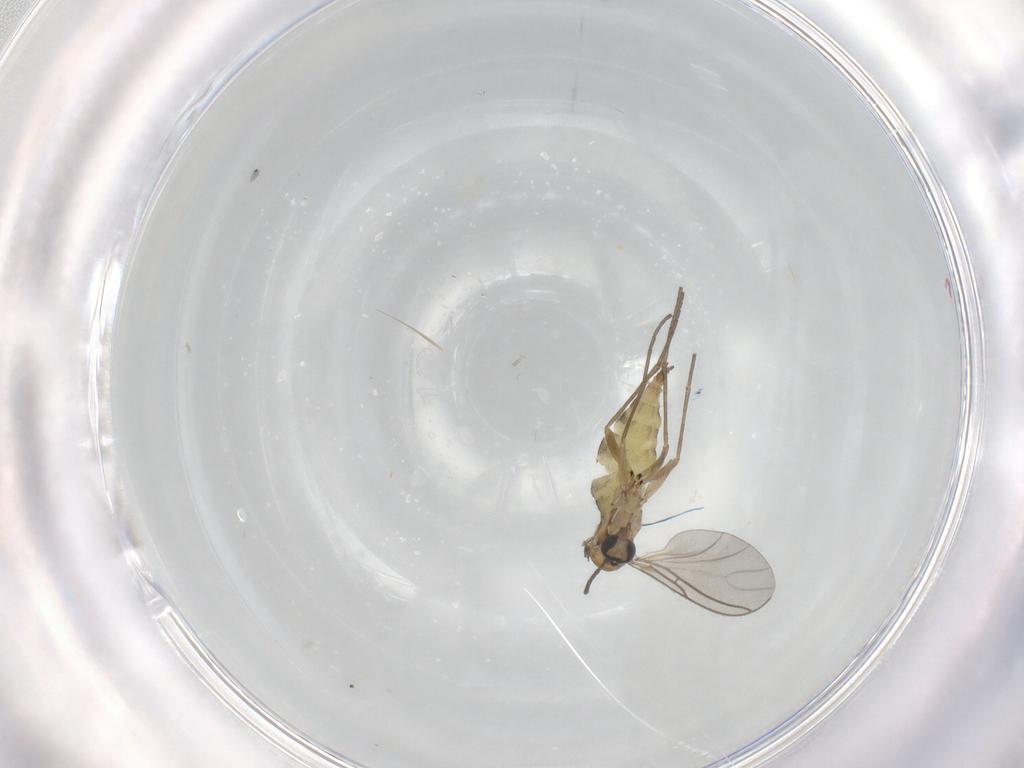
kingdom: Animalia
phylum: Arthropoda
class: Insecta
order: Diptera
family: Sciaridae
